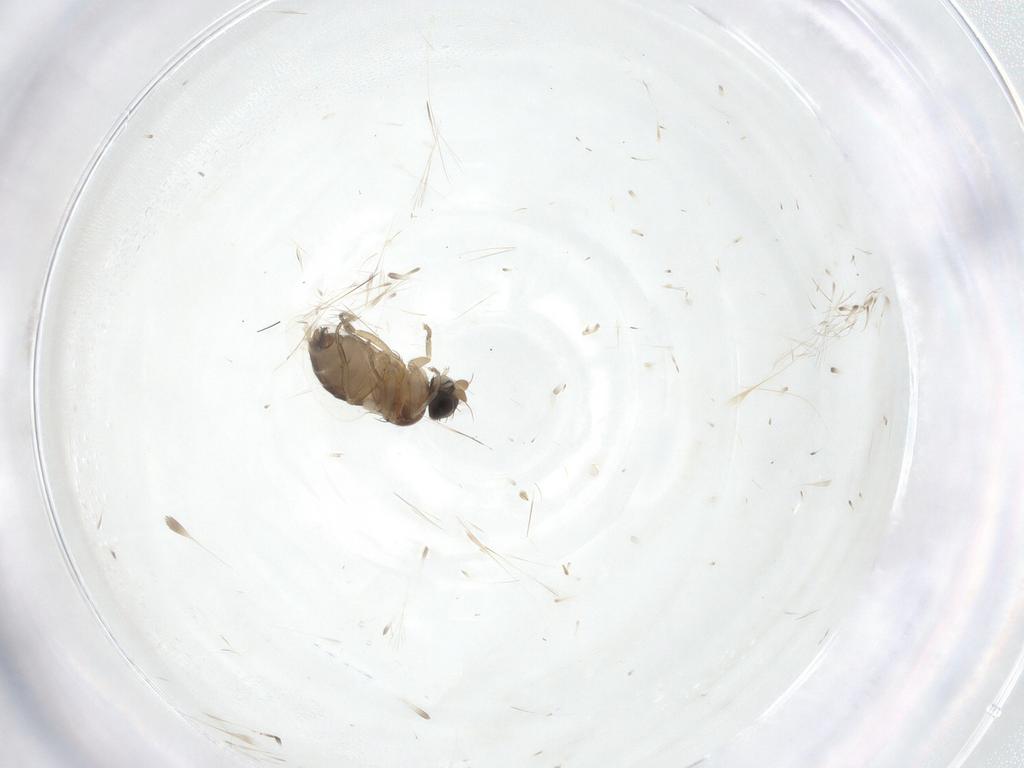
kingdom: Animalia
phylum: Arthropoda
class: Insecta
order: Diptera
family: Phoridae
